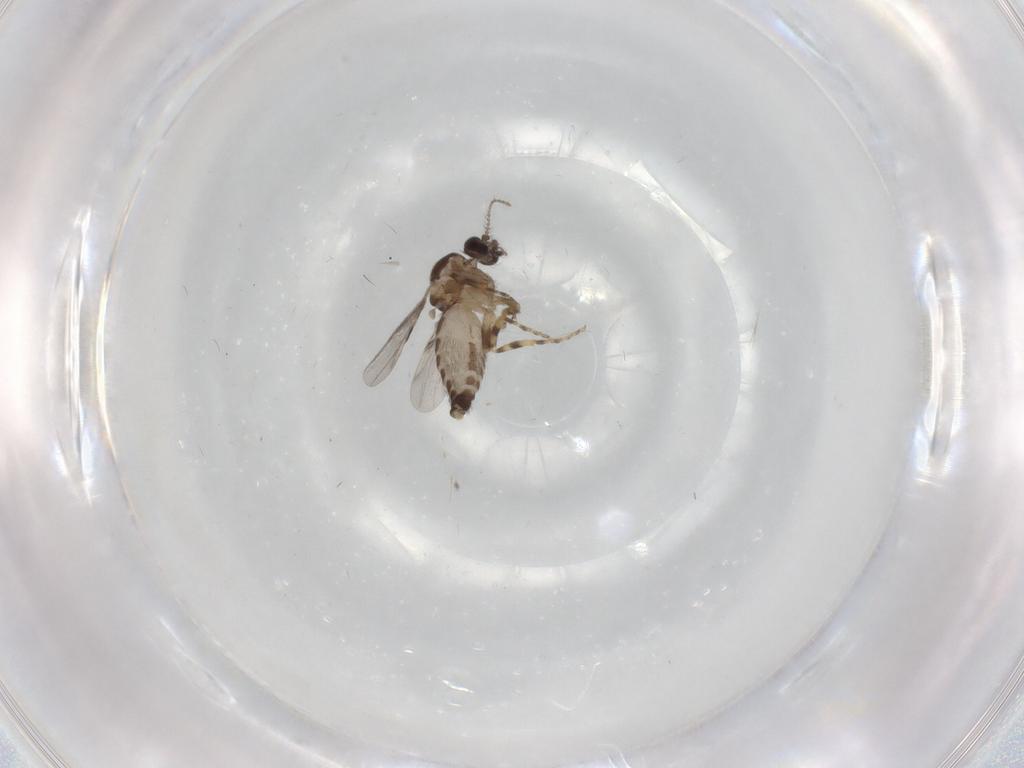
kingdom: Animalia
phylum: Arthropoda
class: Insecta
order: Diptera
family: Ceratopogonidae
